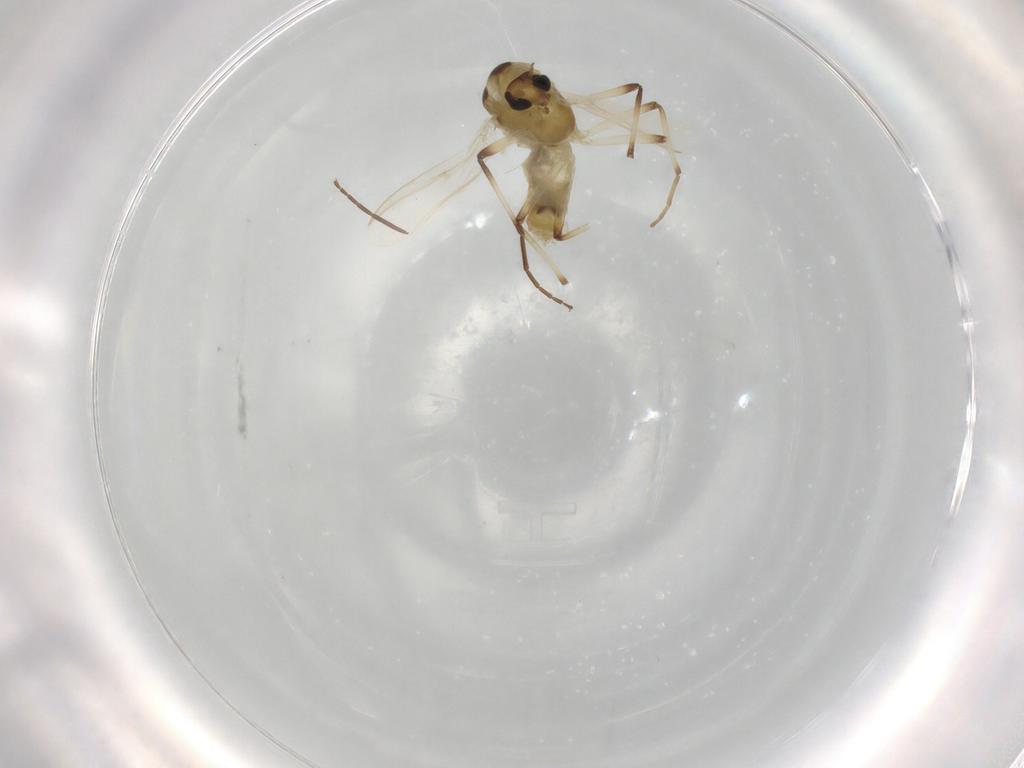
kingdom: Animalia
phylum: Arthropoda
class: Insecta
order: Diptera
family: Chironomidae
